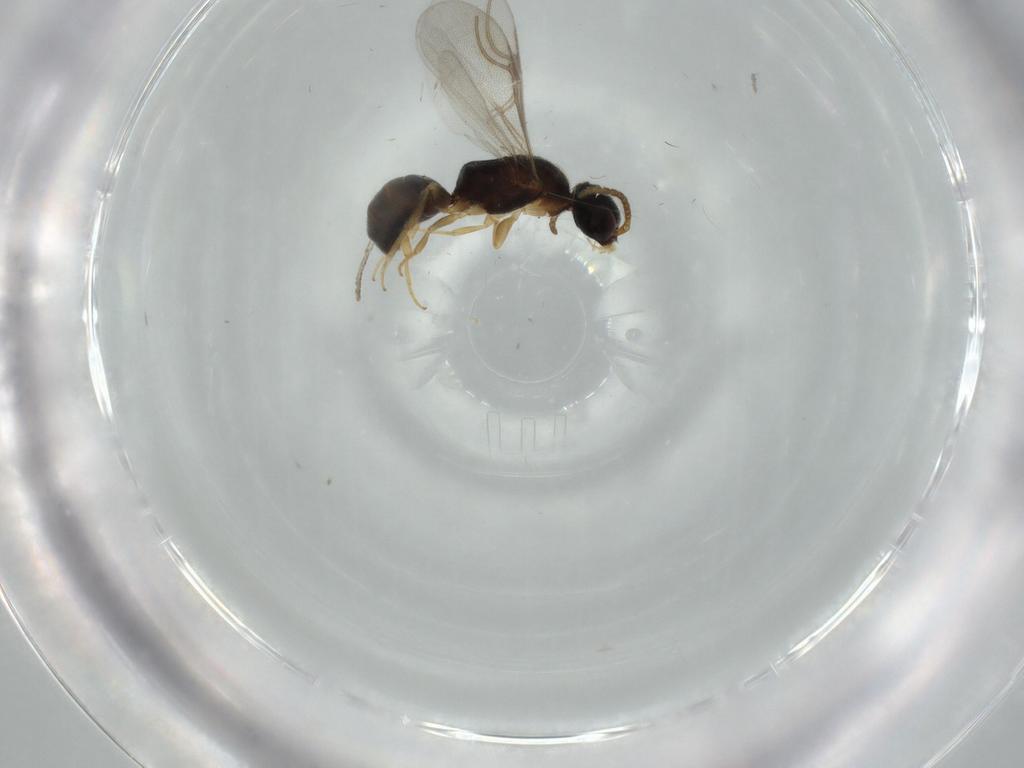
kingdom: Animalia
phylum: Arthropoda
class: Insecta
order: Hymenoptera
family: Bethylidae
